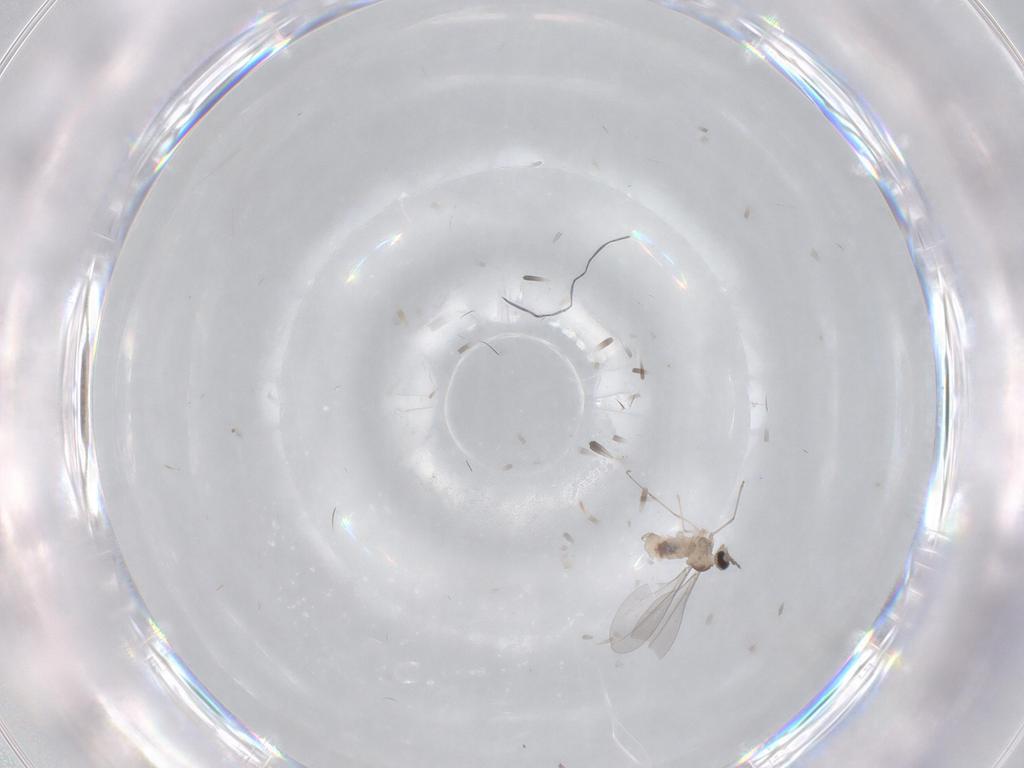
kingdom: Animalia
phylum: Arthropoda
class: Insecta
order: Diptera
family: Cecidomyiidae
